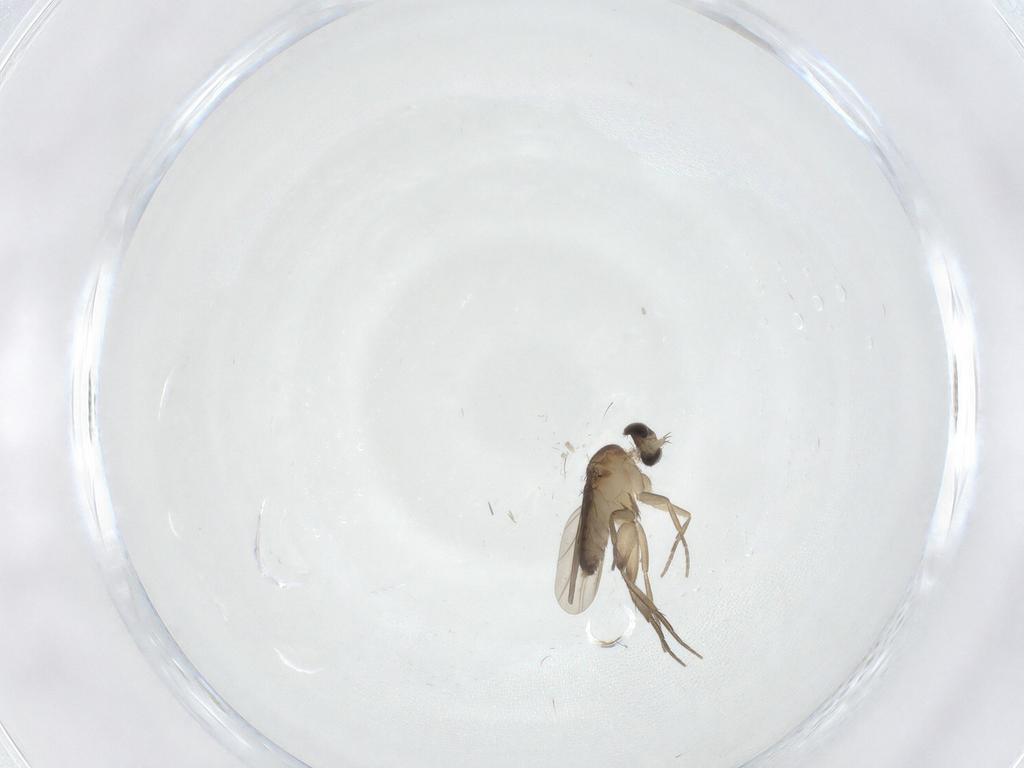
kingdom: Animalia
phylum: Arthropoda
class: Insecta
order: Diptera
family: Phoridae
